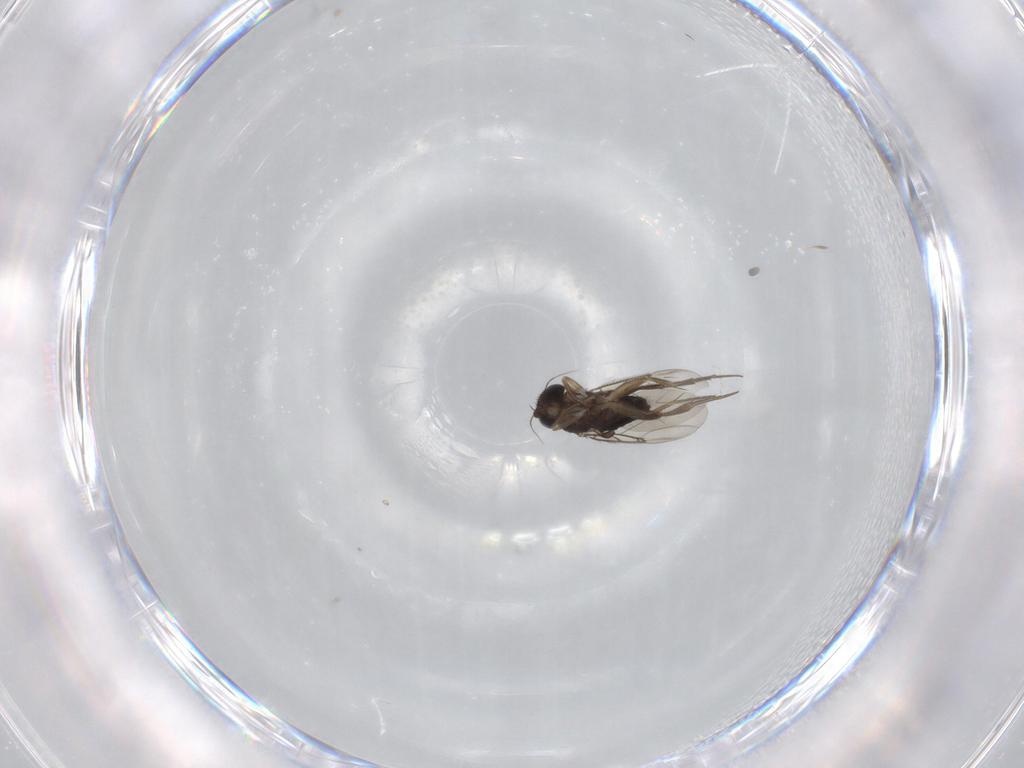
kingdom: Animalia
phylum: Arthropoda
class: Insecta
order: Diptera
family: Phoridae
